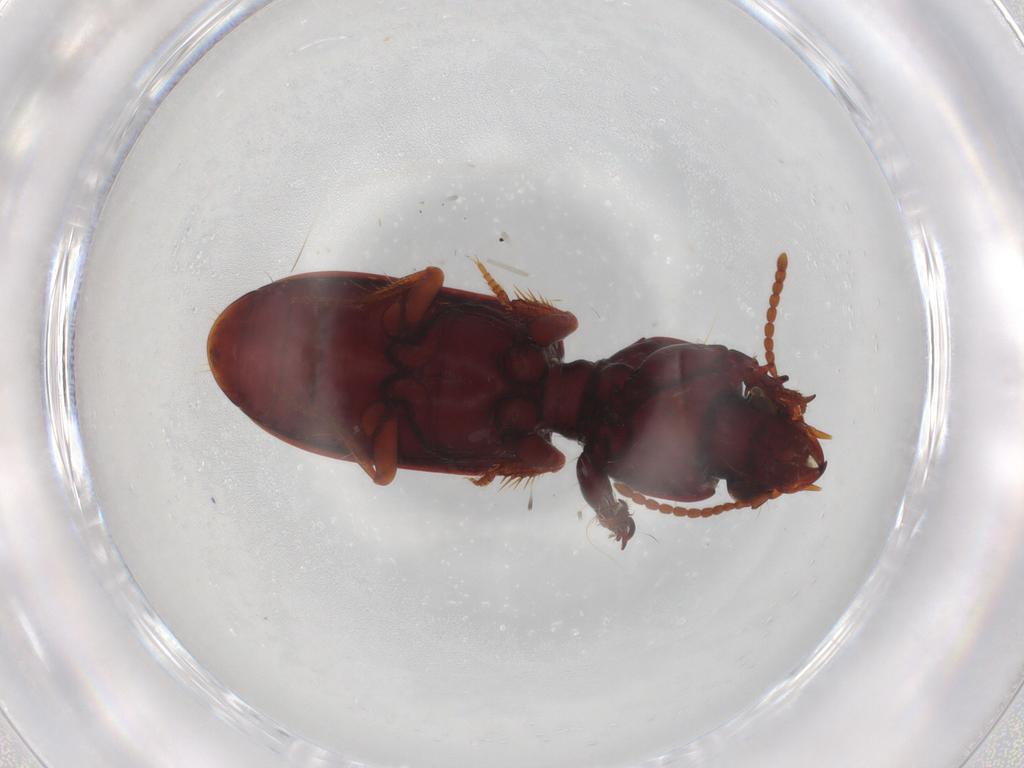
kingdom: Animalia
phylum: Arthropoda
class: Insecta
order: Coleoptera
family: Carabidae
